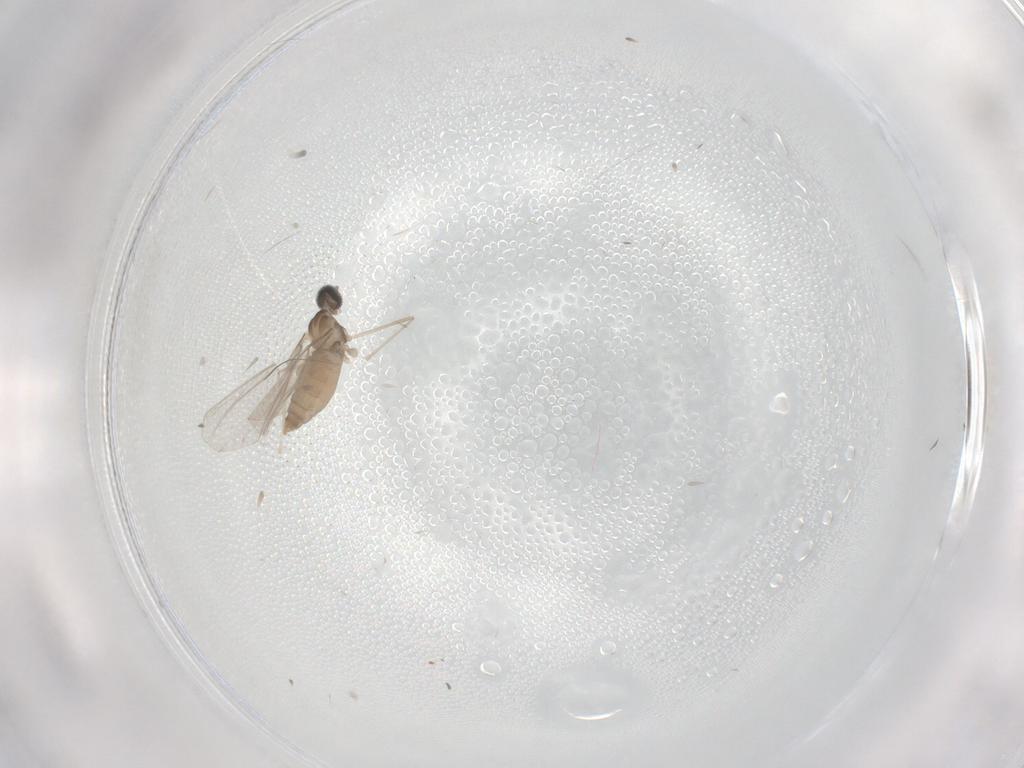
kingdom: Animalia
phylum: Arthropoda
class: Insecta
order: Diptera
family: Cecidomyiidae
